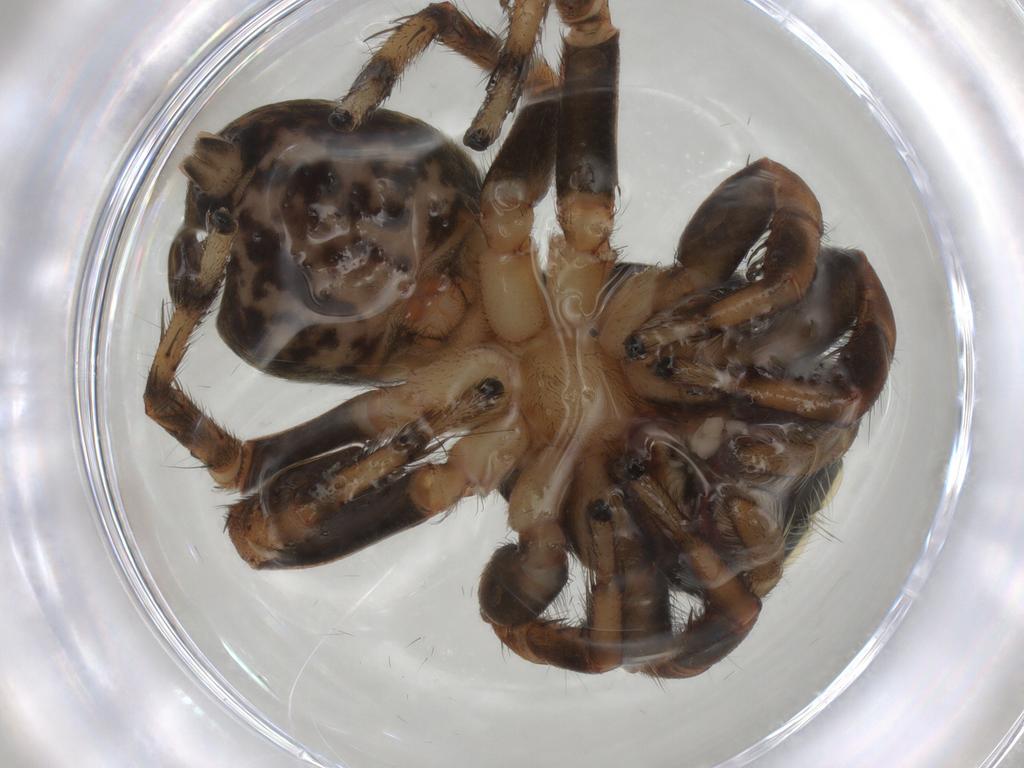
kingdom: Animalia
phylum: Arthropoda
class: Arachnida
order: Araneae
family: Salticidae
